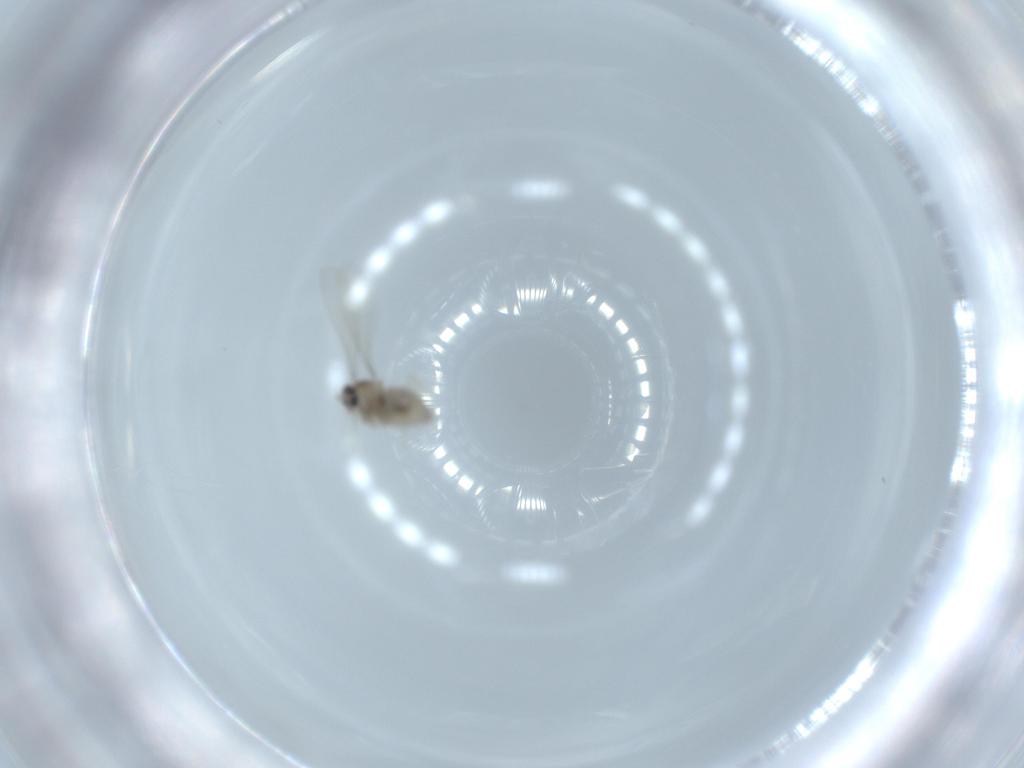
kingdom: Animalia
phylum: Arthropoda
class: Insecta
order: Diptera
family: Cecidomyiidae
